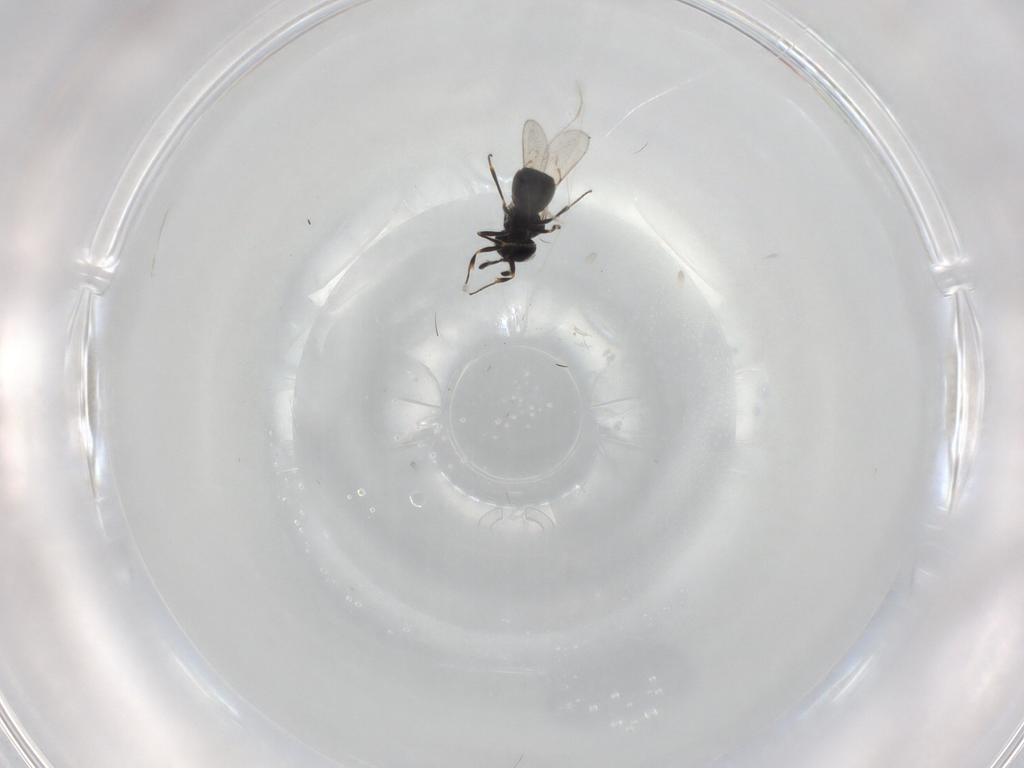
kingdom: Animalia
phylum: Arthropoda
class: Insecta
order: Hymenoptera
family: Scelionidae
